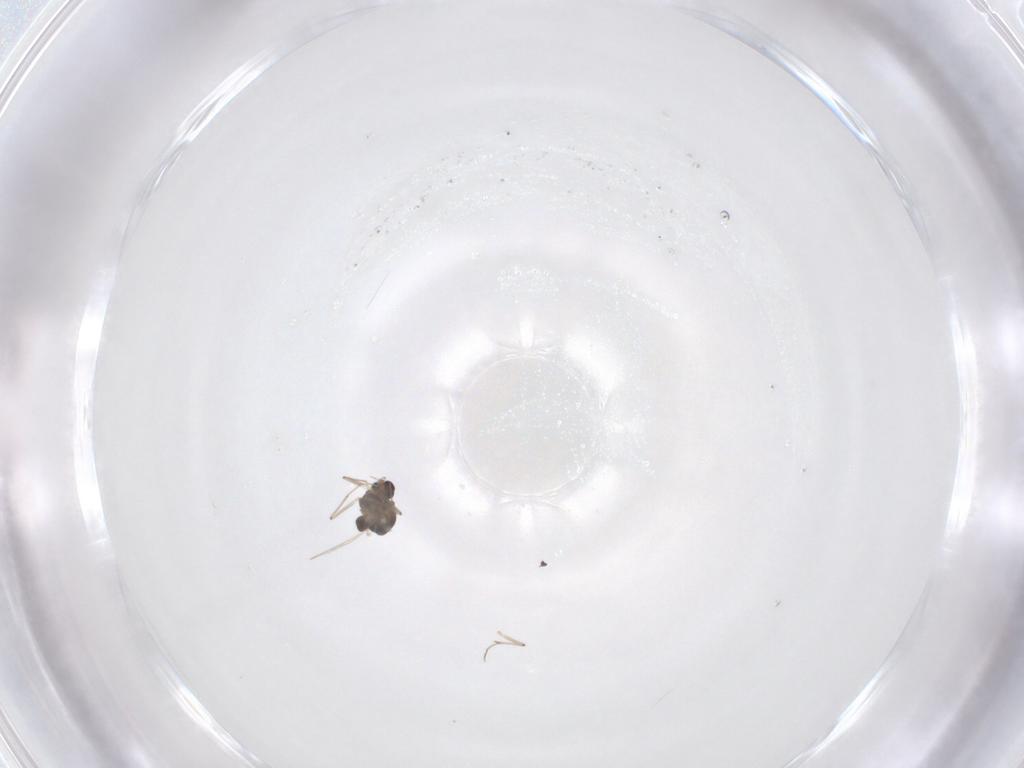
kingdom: Animalia
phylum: Arthropoda
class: Insecta
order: Diptera
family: Chironomidae
